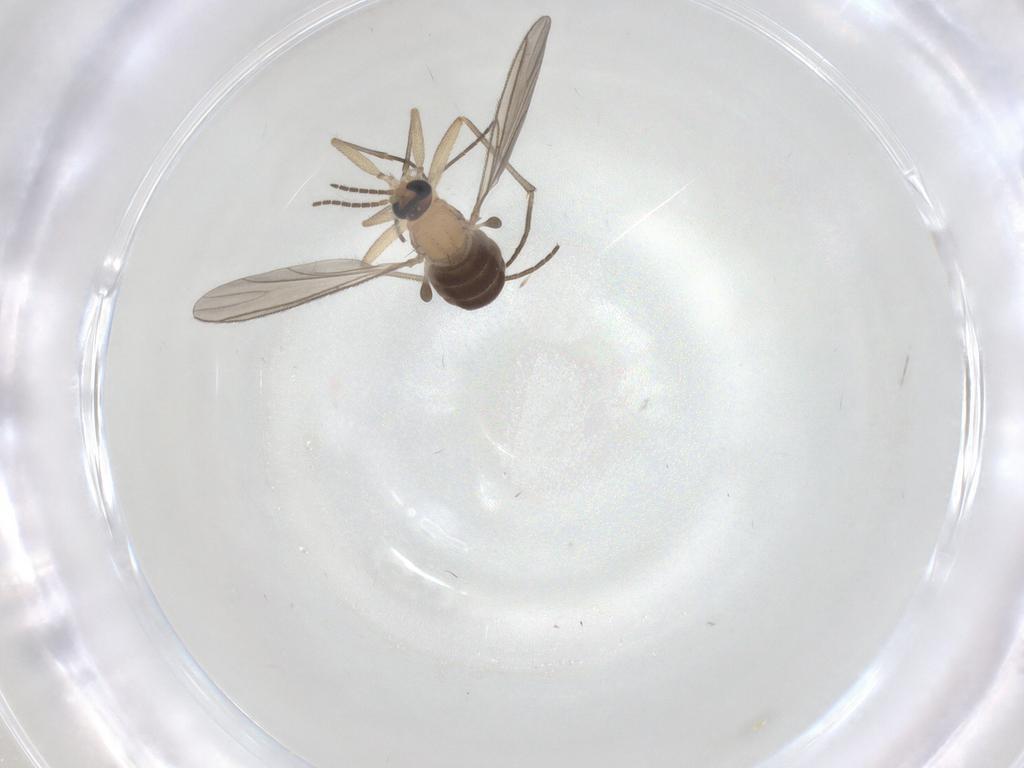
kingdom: Animalia
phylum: Arthropoda
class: Insecta
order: Diptera
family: Sciaridae
